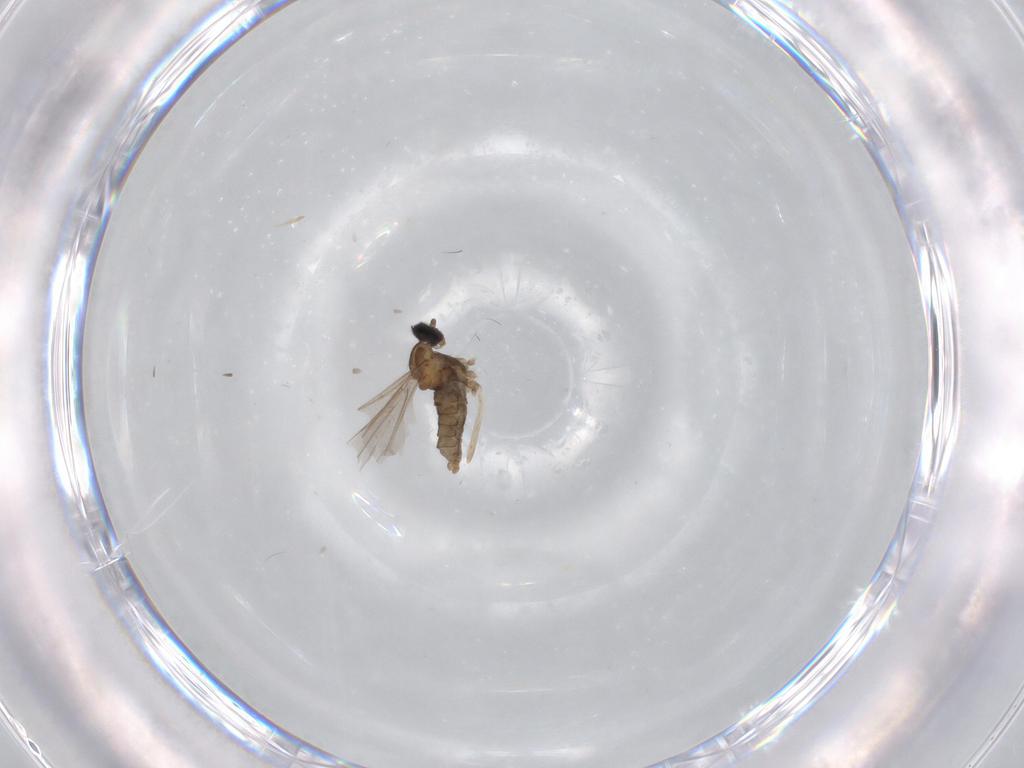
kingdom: Animalia
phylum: Arthropoda
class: Insecta
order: Diptera
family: Cecidomyiidae
